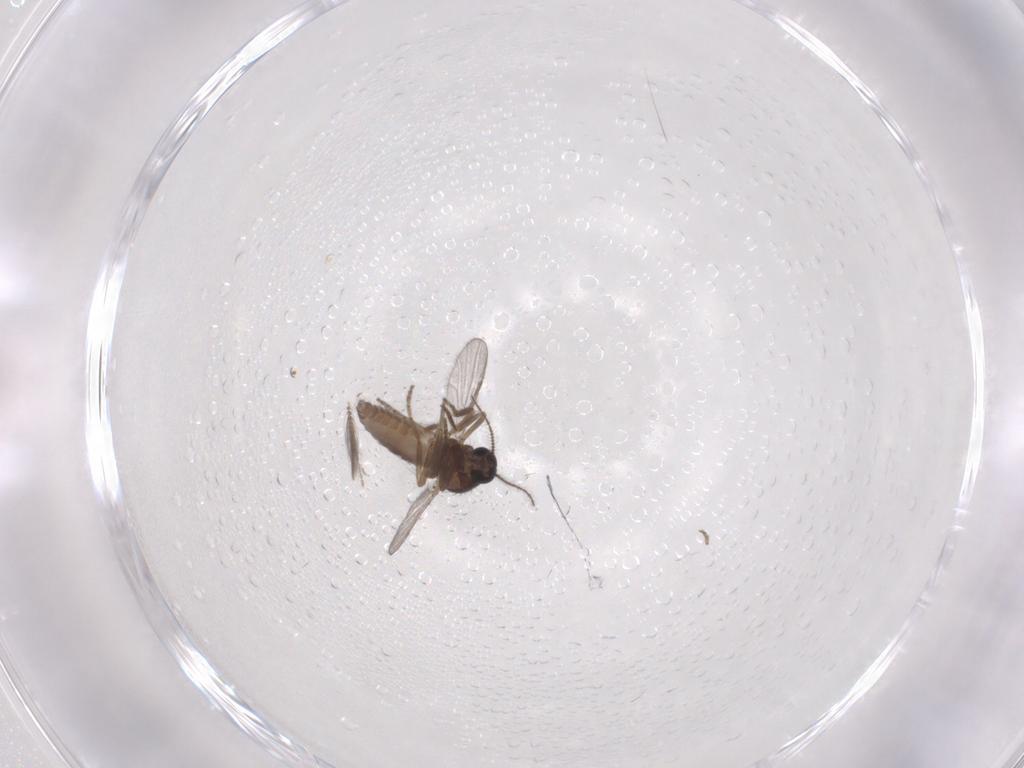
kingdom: Animalia
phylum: Arthropoda
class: Insecta
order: Diptera
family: Ceratopogonidae
